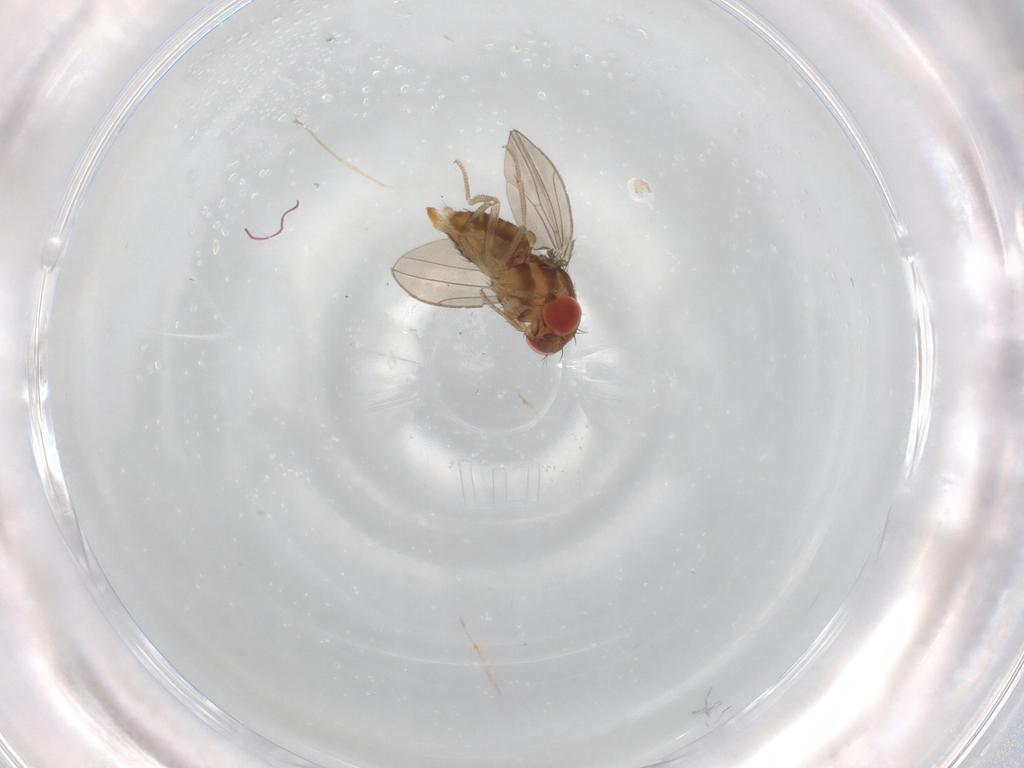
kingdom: Animalia
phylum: Arthropoda
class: Insecta
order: Diptera
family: Drosophilidae
